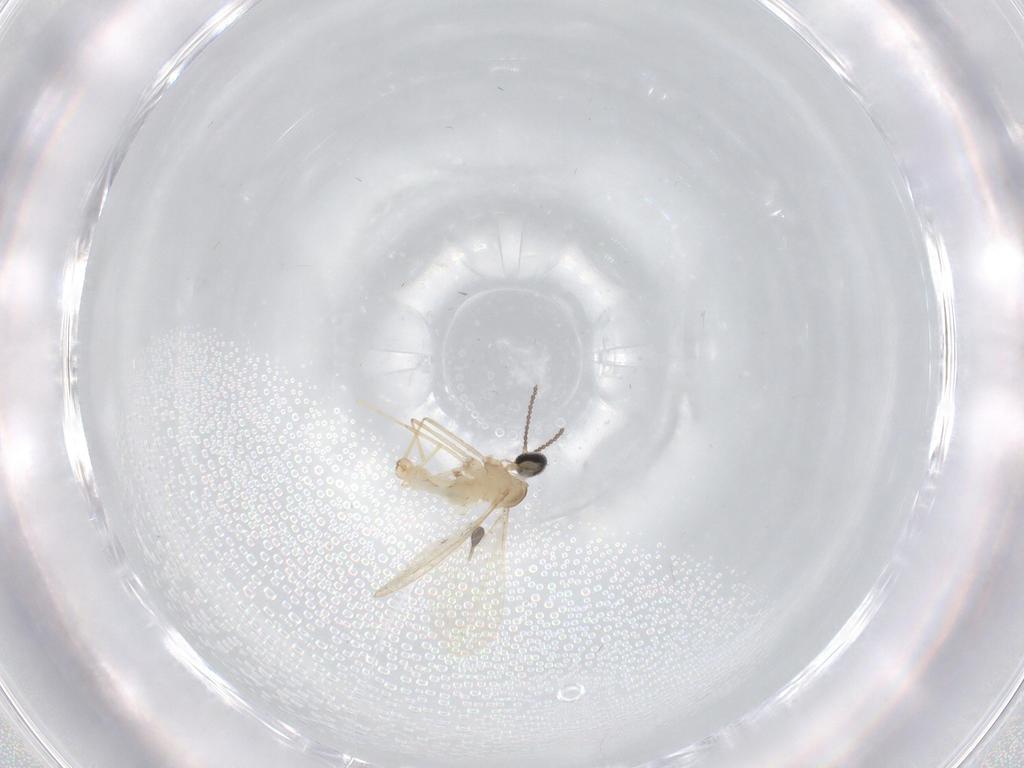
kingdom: Animalia
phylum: Arthropoda
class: Insecta
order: Diptera
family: Cecidomyiidae
